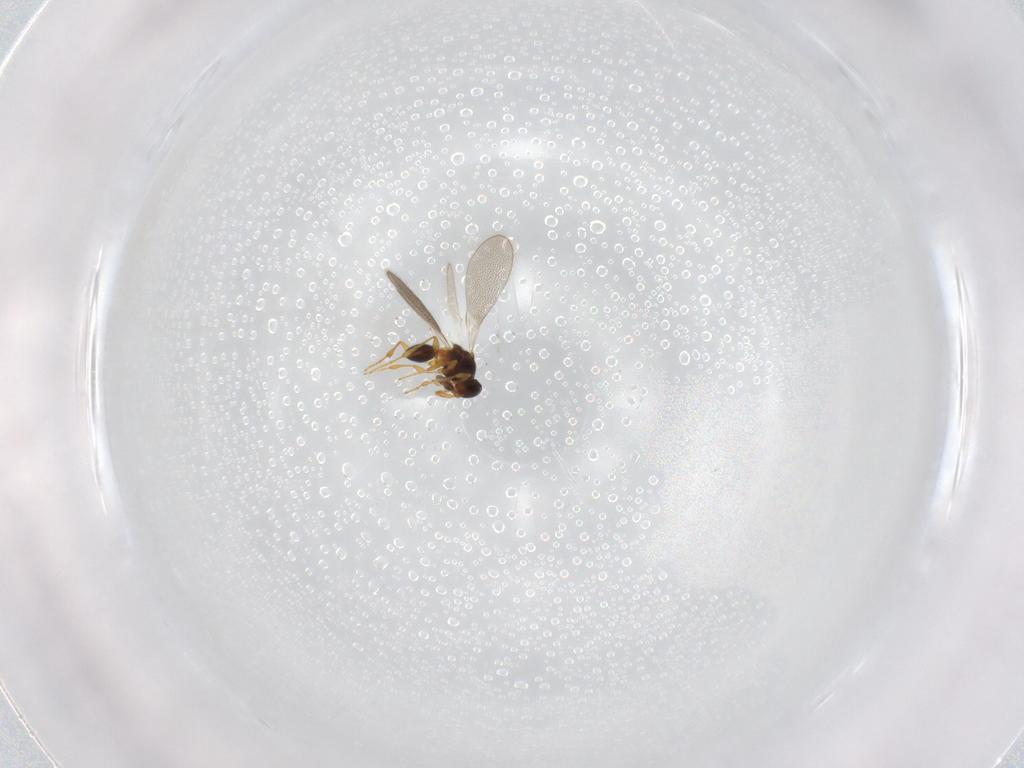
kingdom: Animalia
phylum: Arthropoda
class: Insecta
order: Hymenoptera
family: Platygastridae
